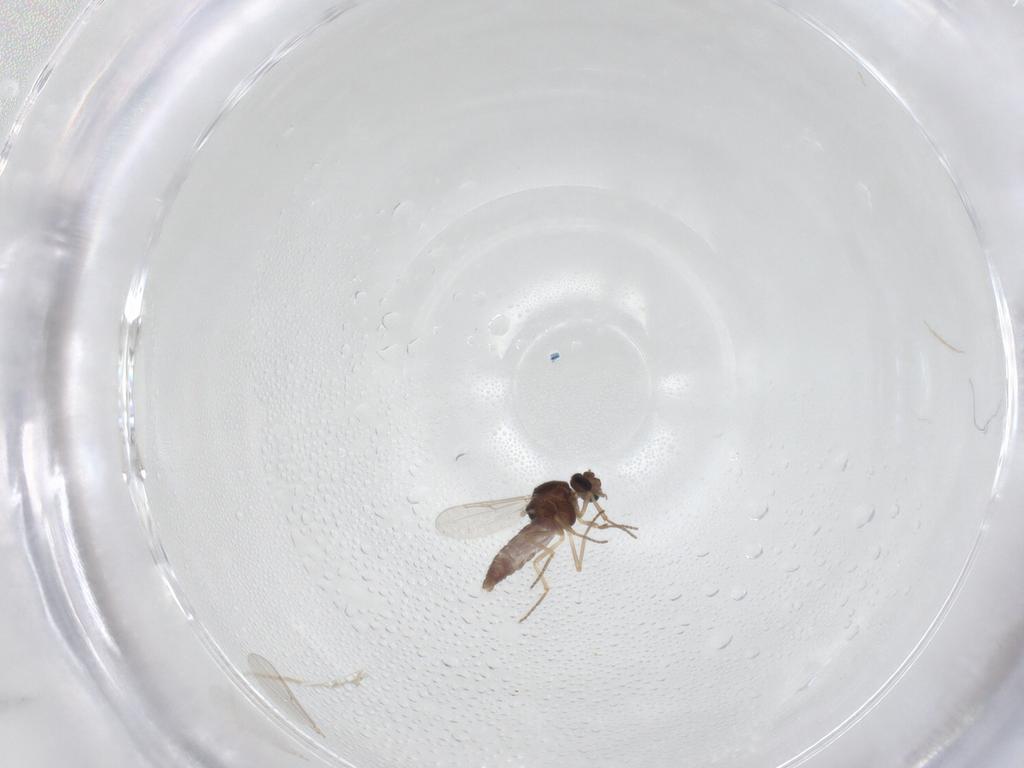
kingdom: Animalia
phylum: Arthropoda
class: Insecta
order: Diptera
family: Ceratopogonidae
